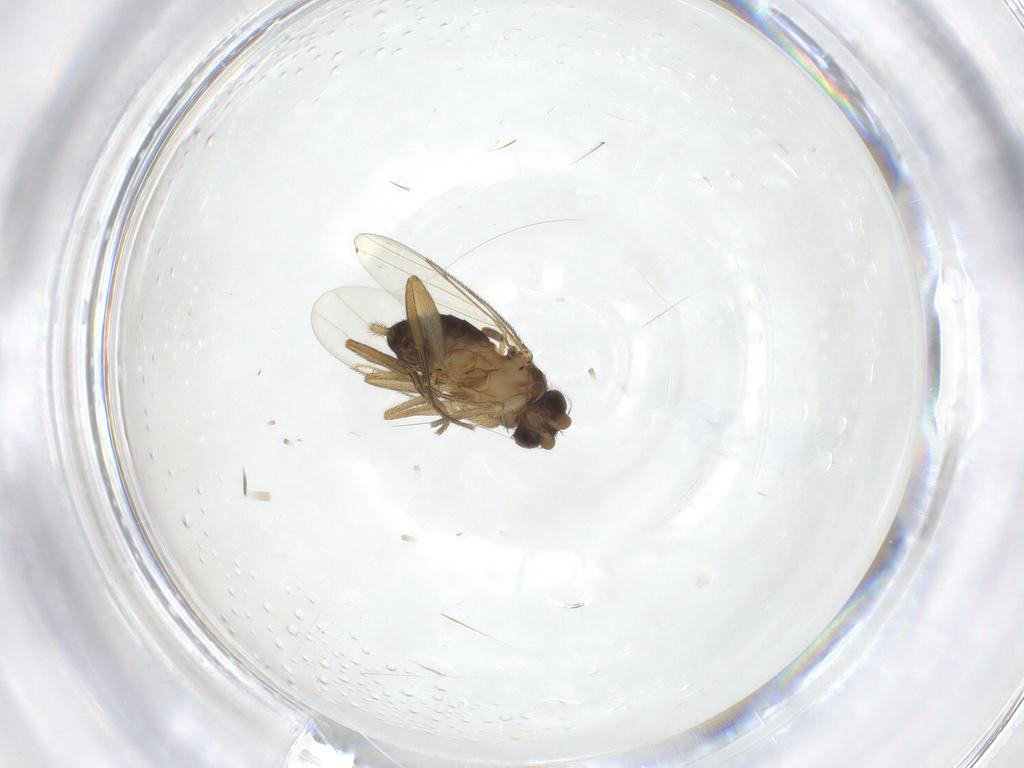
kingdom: Animalia
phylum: Arthropoda
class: Insecta
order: Diptera
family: Phoridae
